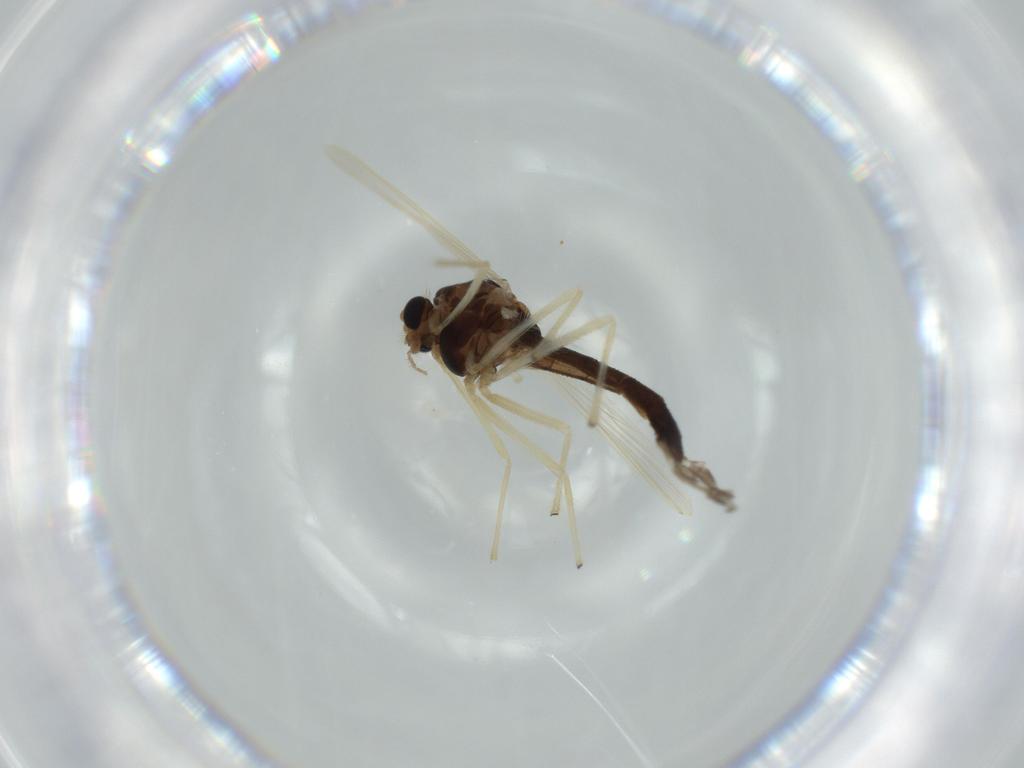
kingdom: Animalia
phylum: Arthropoda
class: Insecta
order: Diptera
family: Chironomidae
